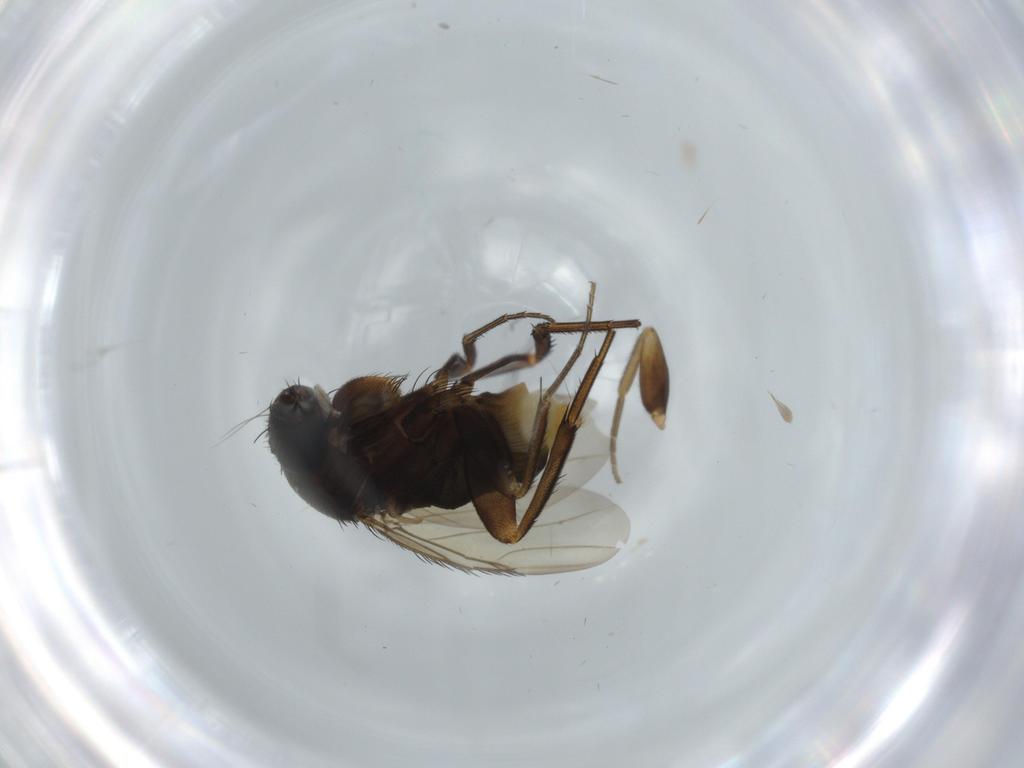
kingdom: Animalia
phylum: Arthropoda
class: Insecta
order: Diptera
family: Phoridae
